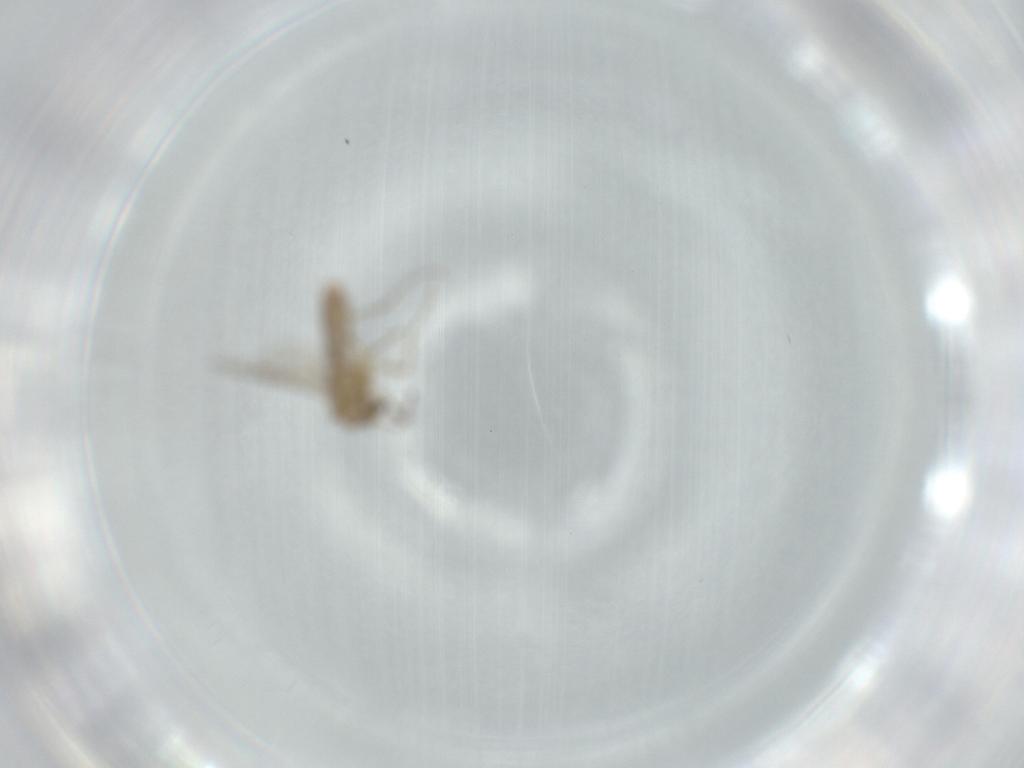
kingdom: Animalia
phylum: Arthropoda
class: Insecta
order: Diptera
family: Chironomidae
